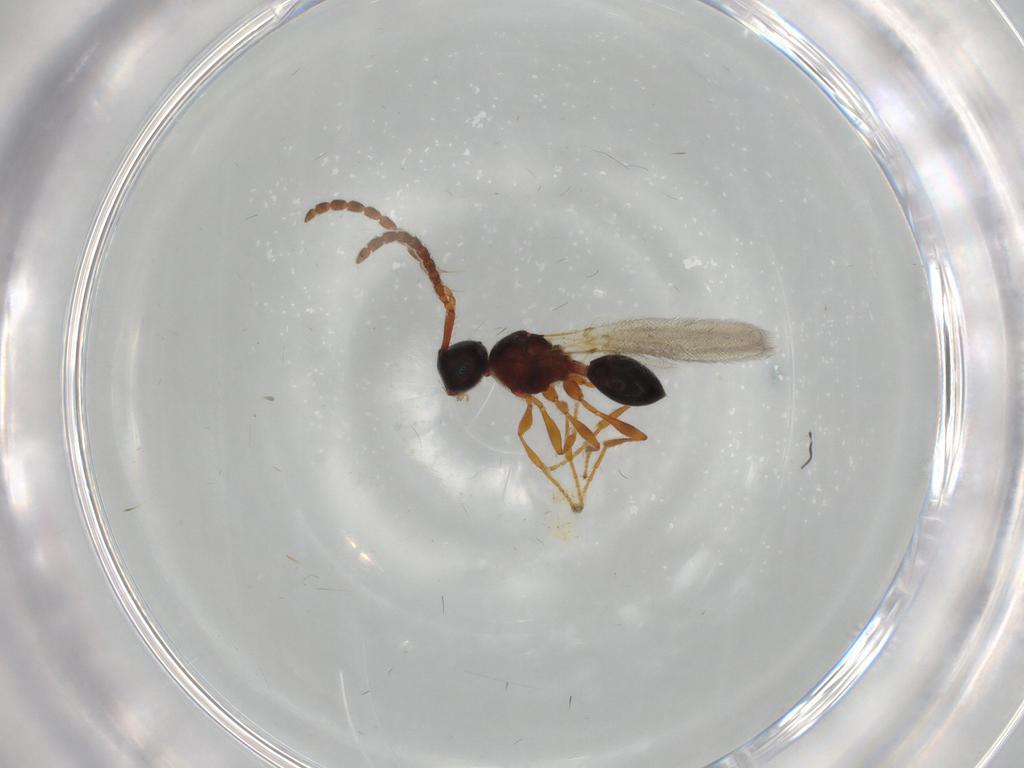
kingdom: Animalia
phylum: Arthropoda
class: Insecta
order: Hymenoptera
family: Diapriidae
